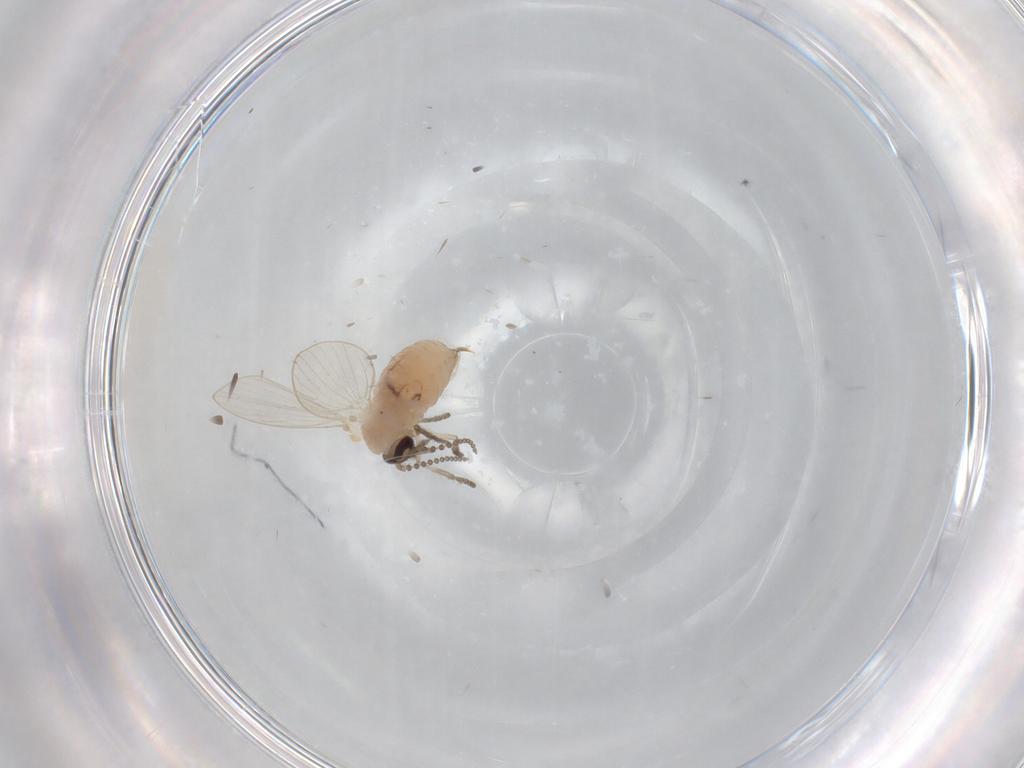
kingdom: Animalia
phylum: Arthropoda
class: Insecta
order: Diptera
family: Psychodidae
